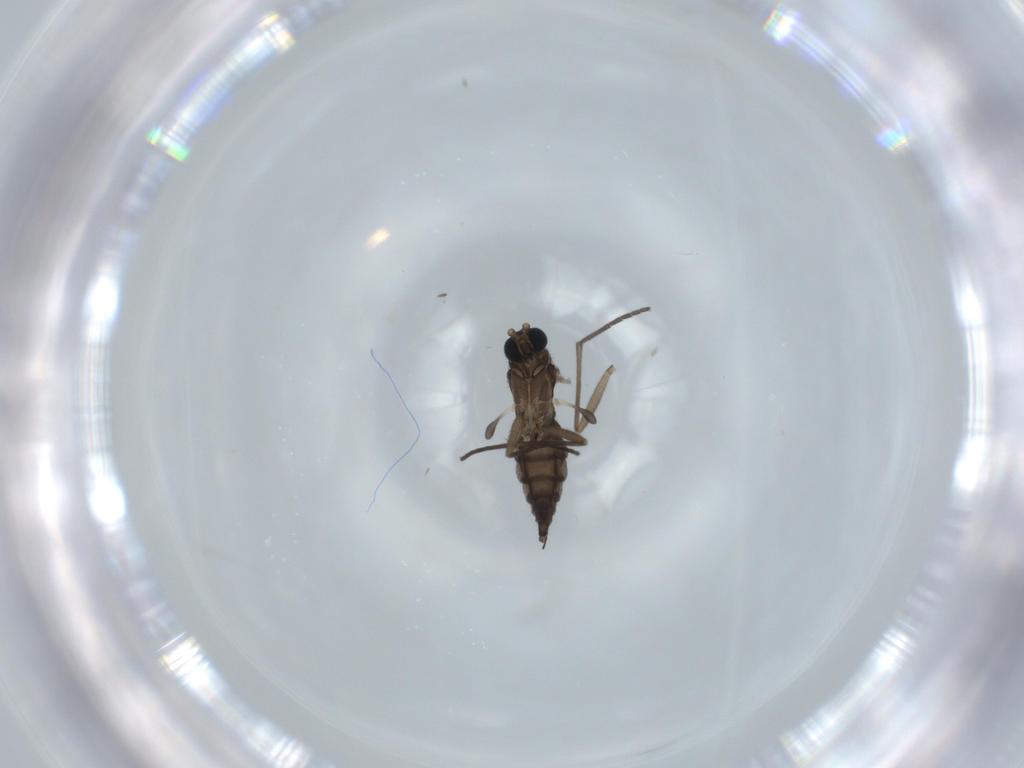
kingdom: Animalia
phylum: Arthropoda
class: Insecta
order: Diptera
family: Sciaridae
